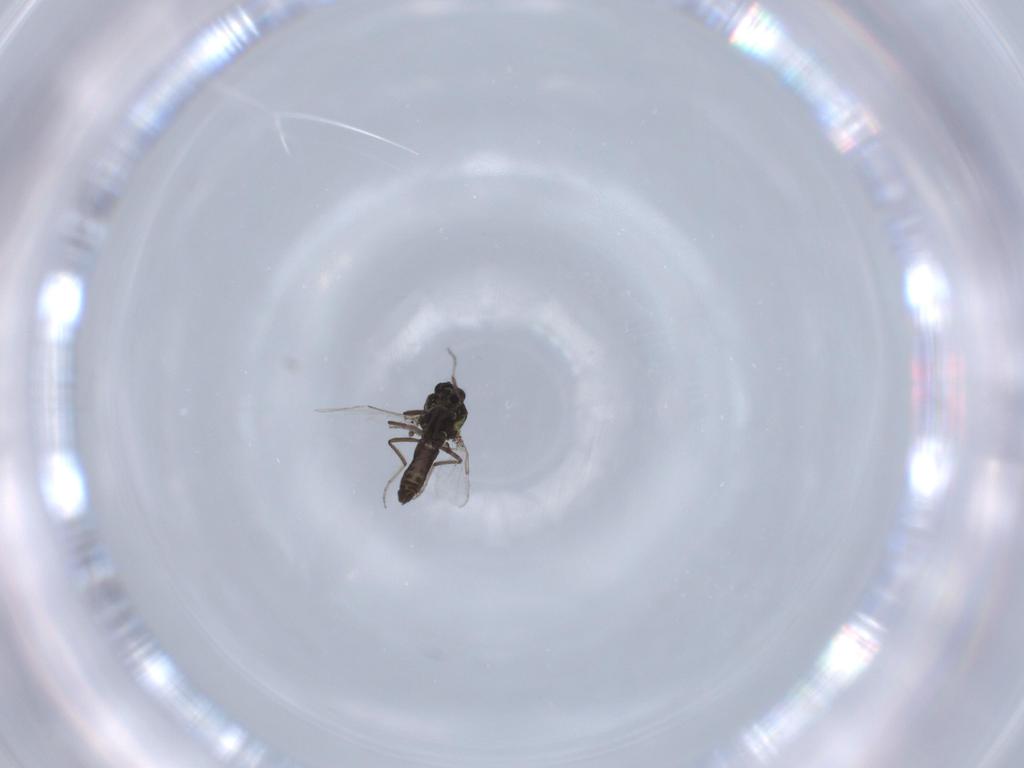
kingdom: Animalia
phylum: Arthropoda
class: Insecta
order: Diptera
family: Ceratopogonidae
